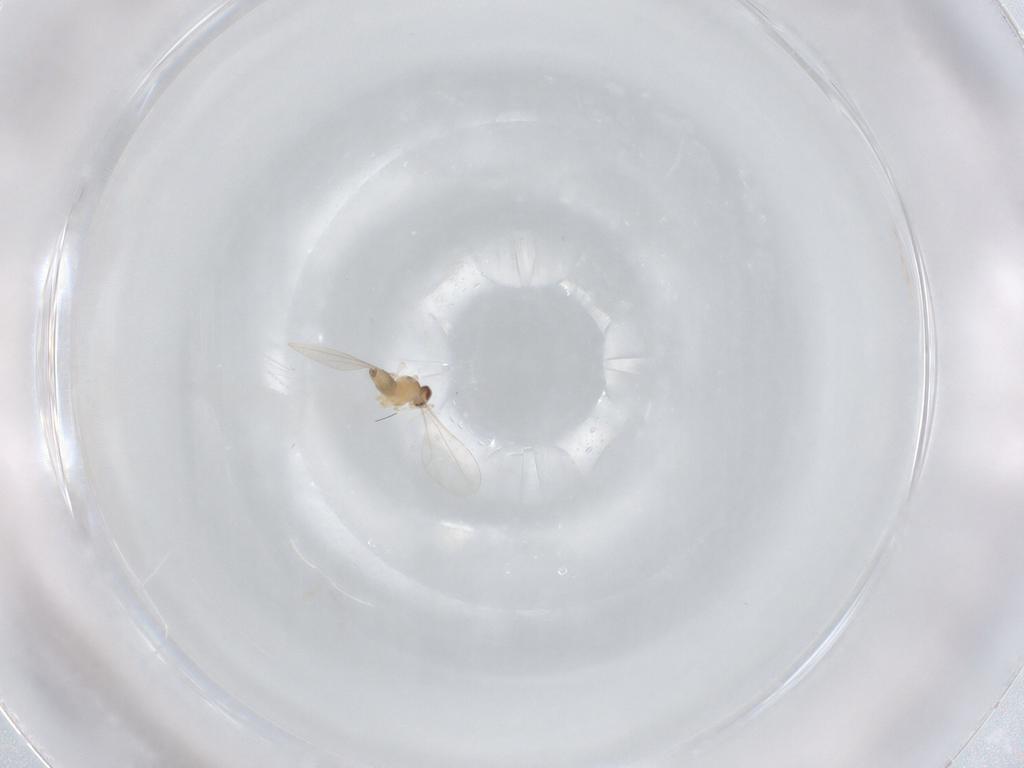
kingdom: Animalia
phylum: Arthropoda
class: Insecta
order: Diptera
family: Cecidomyiidae
